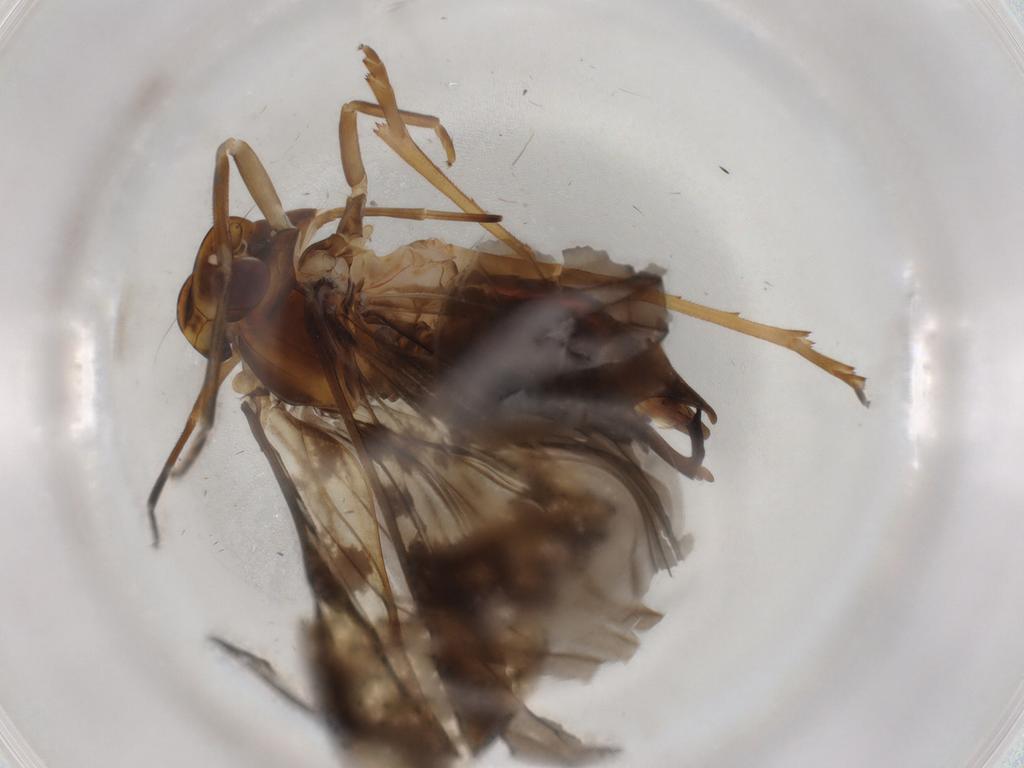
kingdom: Animalia
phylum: Arthropoda
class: Insecta
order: Hemiptera
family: Cixiidae
